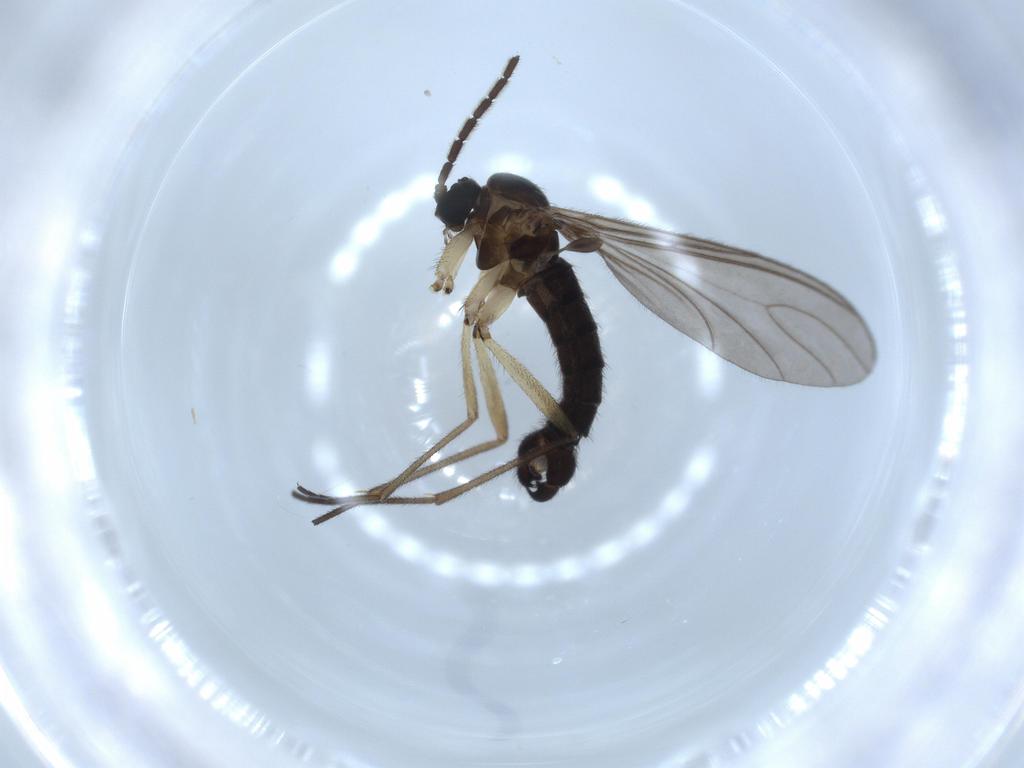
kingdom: Animalia
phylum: Arthropoda
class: Insecta
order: Diptera
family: Sciaridae
